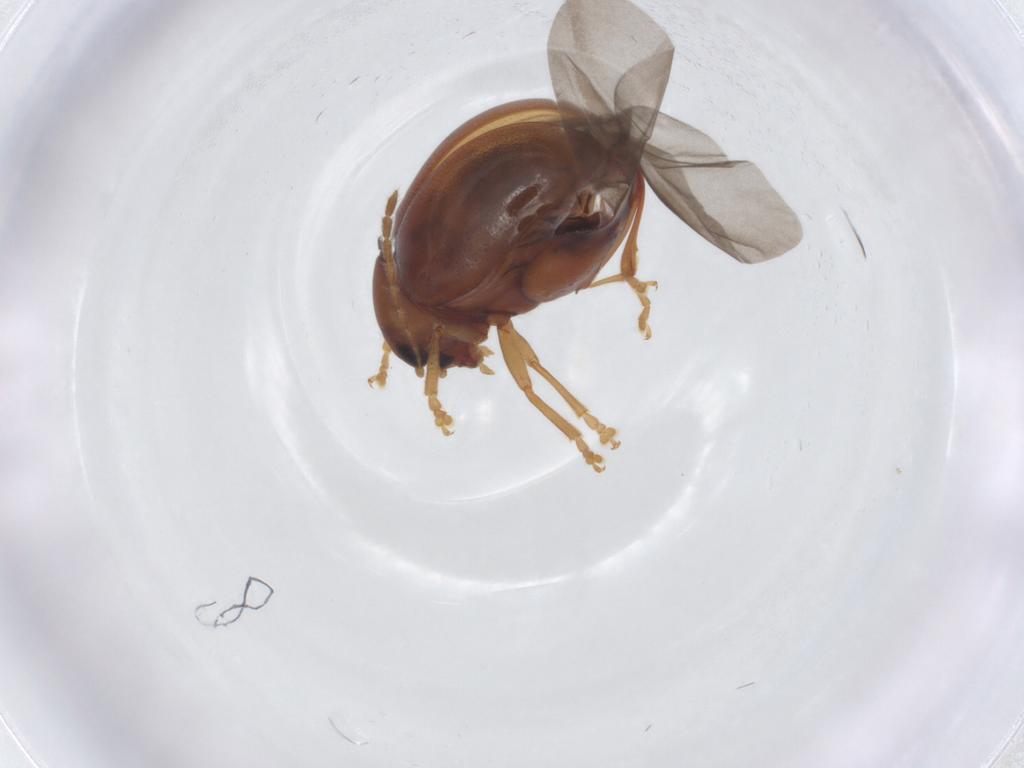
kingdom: Animalia
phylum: Arthropoda
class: Insecta
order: Coleoptera
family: Chrysomelidae
